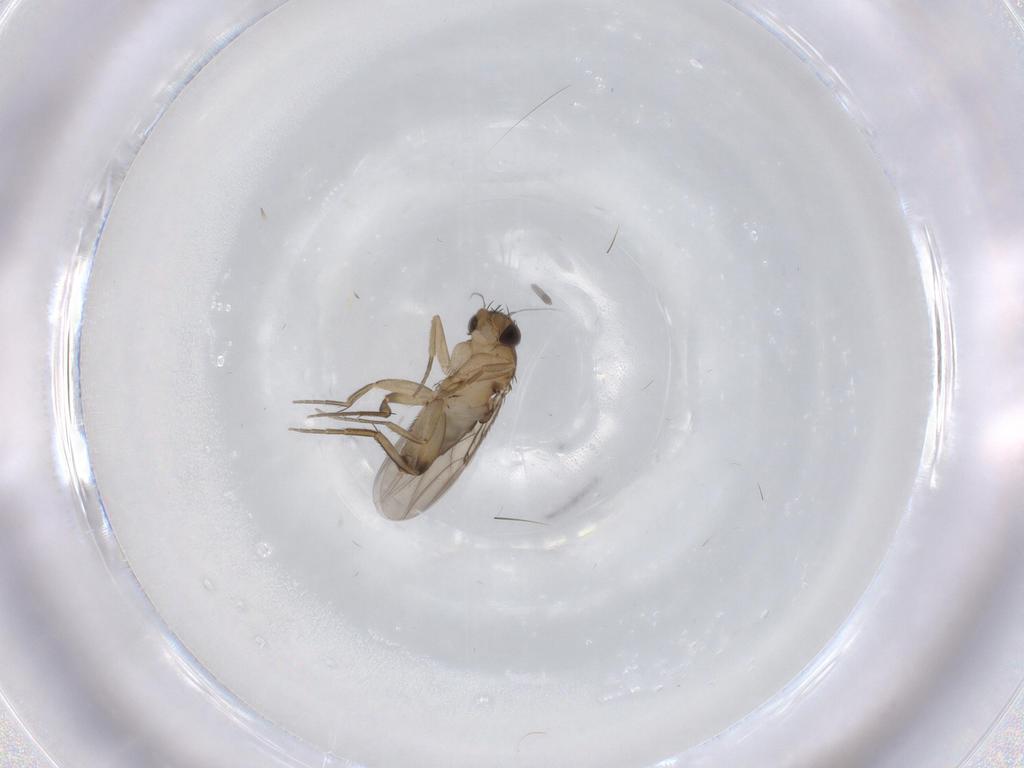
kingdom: Animalia
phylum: Arthropoda
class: Insecta
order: Diptera
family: Phoridae
